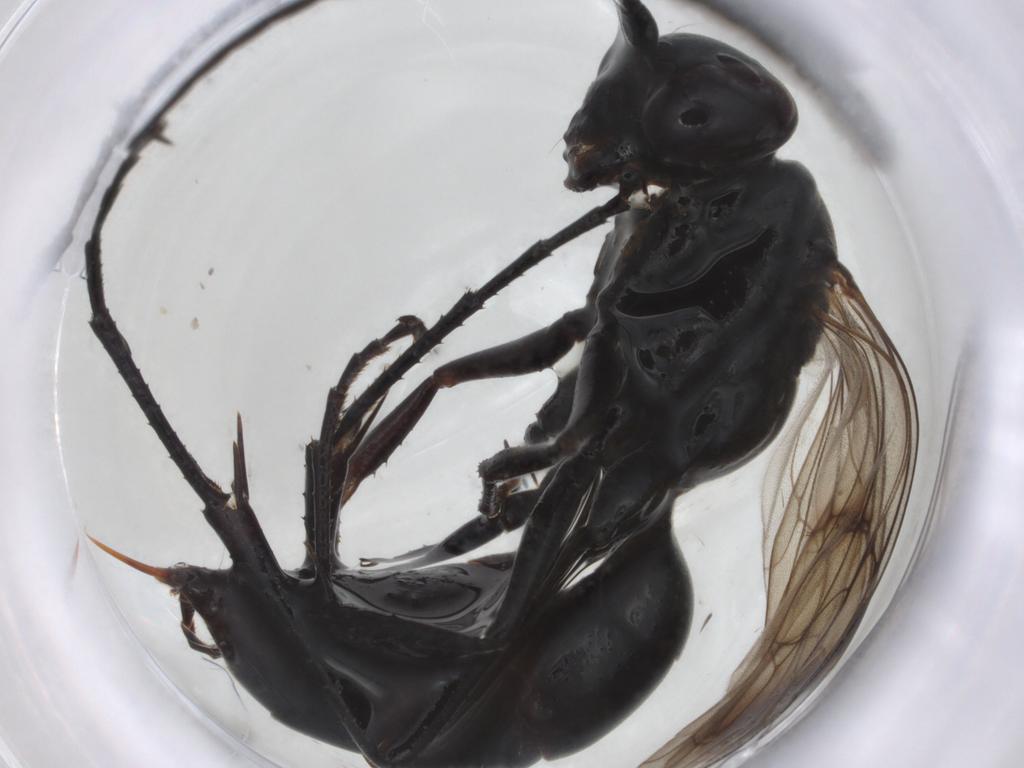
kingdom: Animalia
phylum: Arthropoda
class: Insecta
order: Hymenoptera
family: Pompilidae
